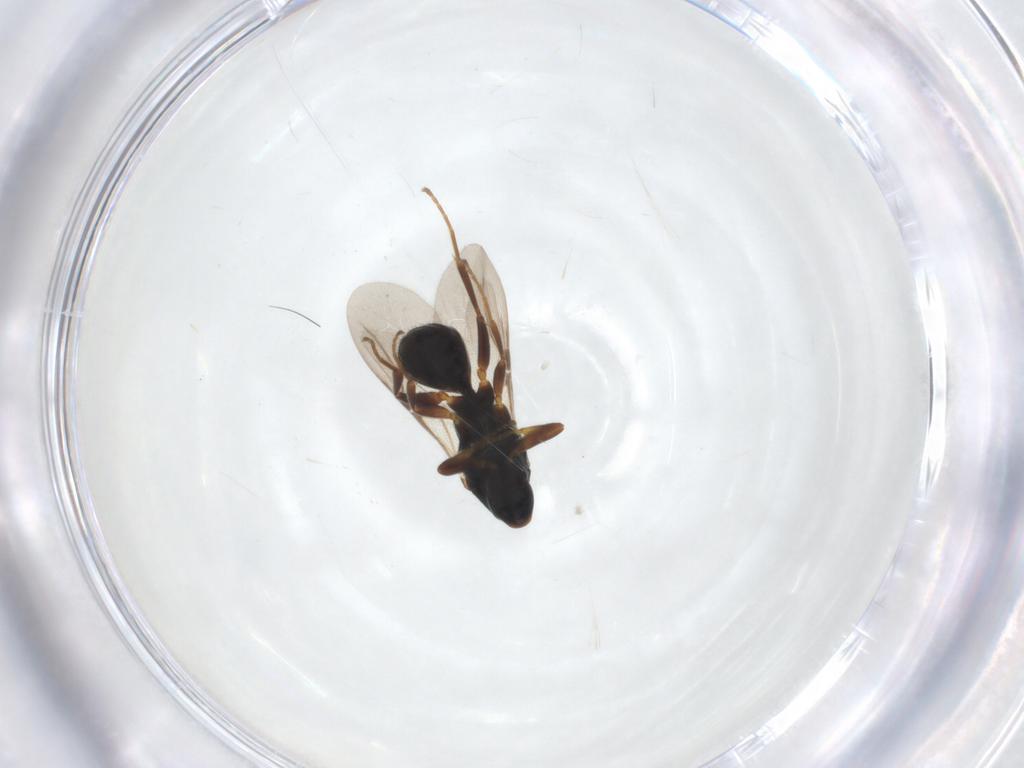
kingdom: Animalia
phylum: Arthropoda
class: Insecta
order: Hymenoptera
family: Bethylidae
